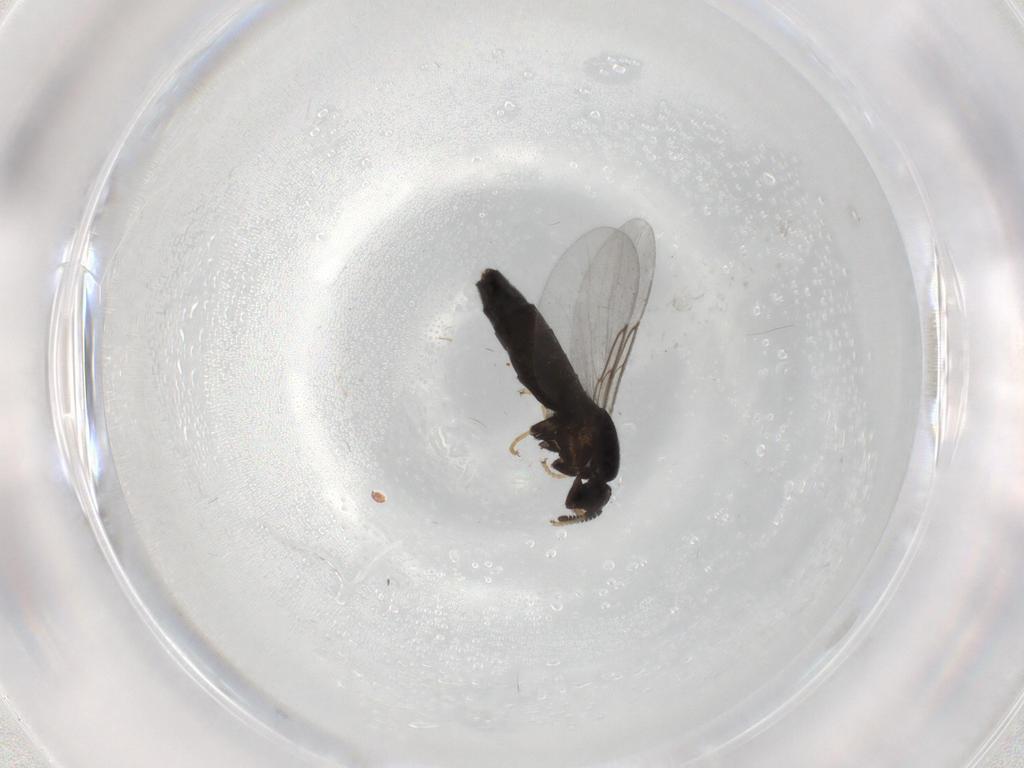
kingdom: Animalia
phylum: Arthropoda
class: Insecta
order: Diptera
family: Scatopsidae
